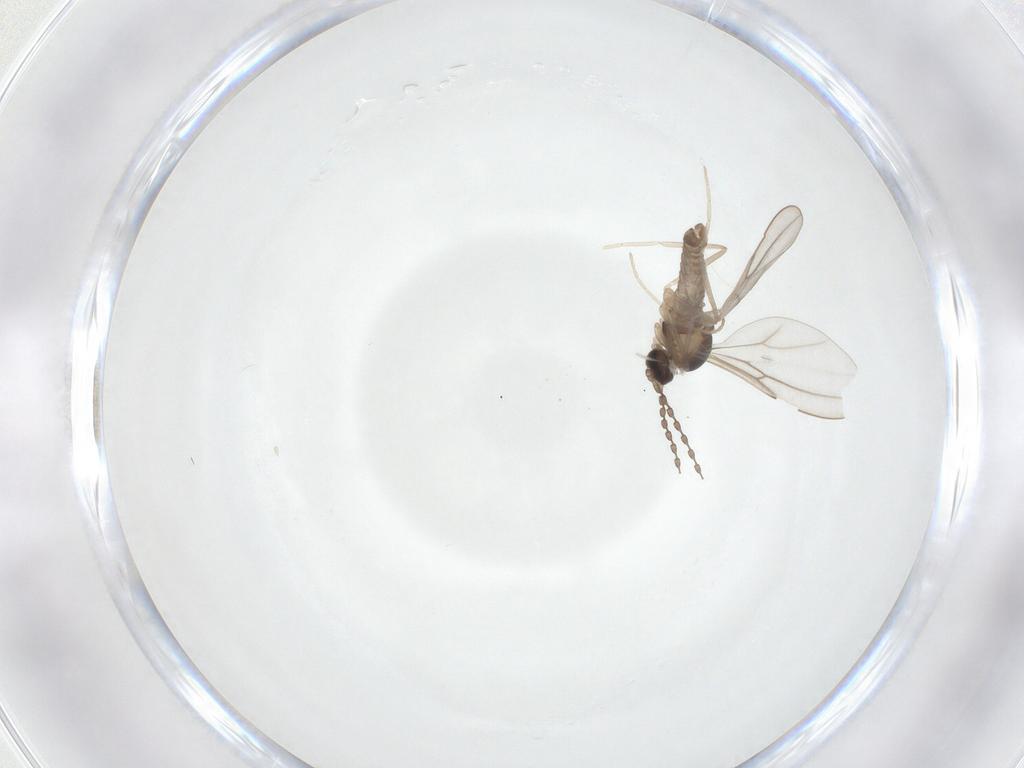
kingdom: Animalia
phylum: Arthropoda
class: Insecta
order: Diptera
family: Cecidomyiidae
